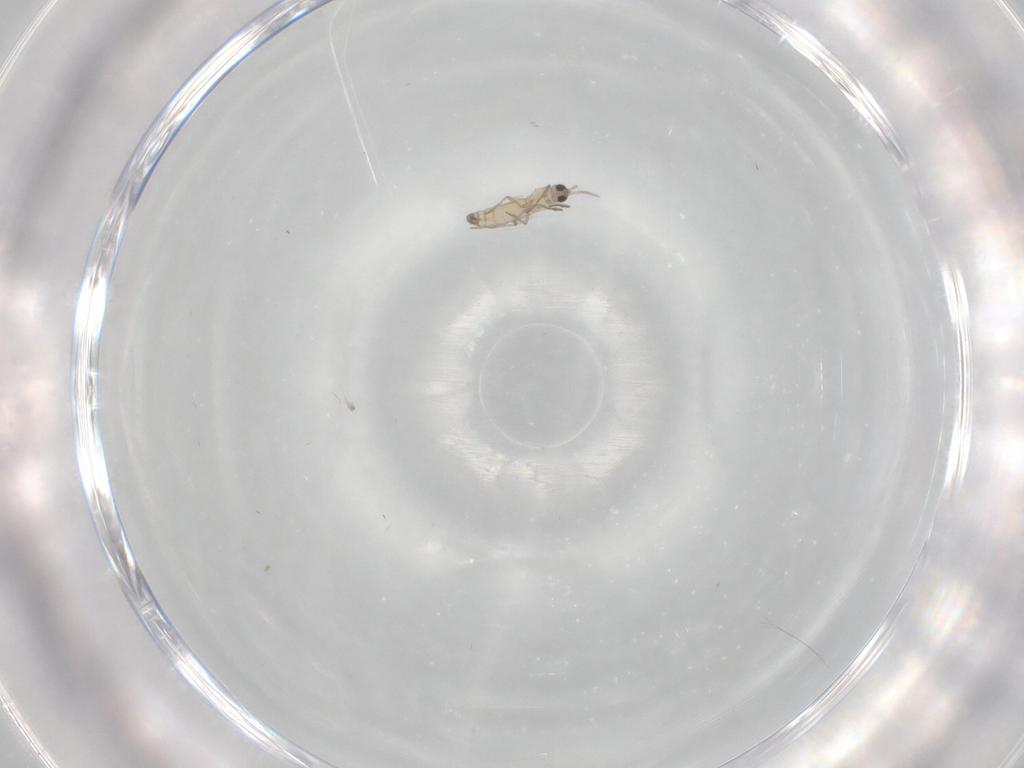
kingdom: Animalia
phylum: Arthropoda
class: Insecta
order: Diptera
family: Cecidomyiidae
